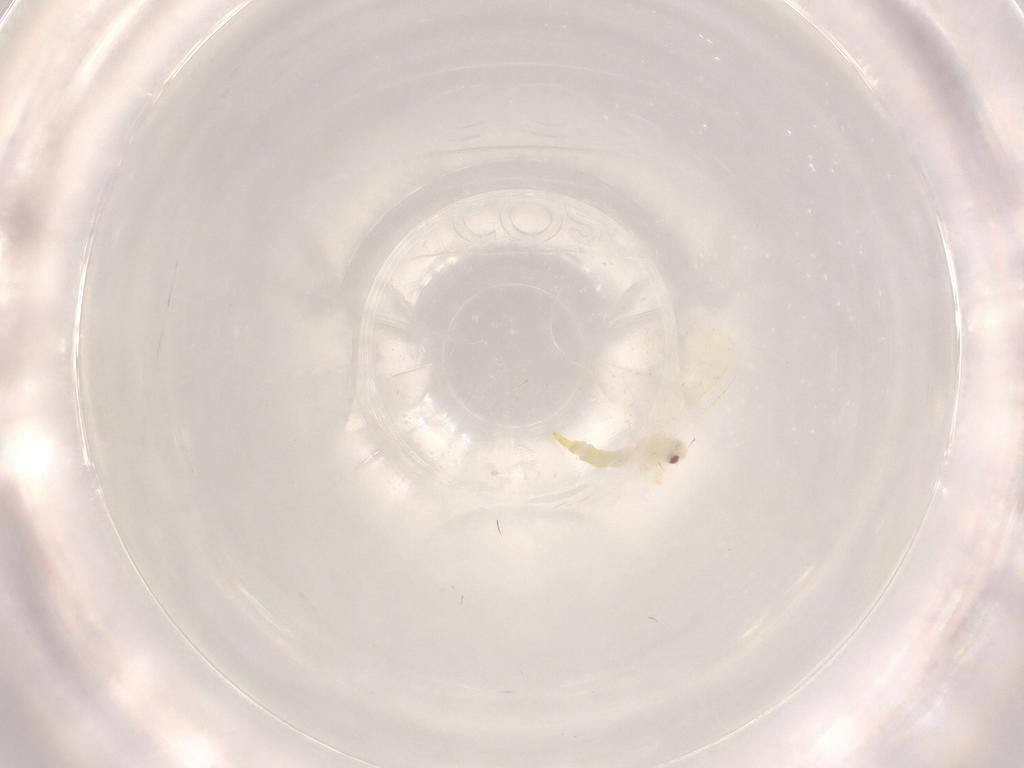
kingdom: Animalia
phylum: Arthropoda
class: Insecta
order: Hemiptera
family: Aleyrodidae
